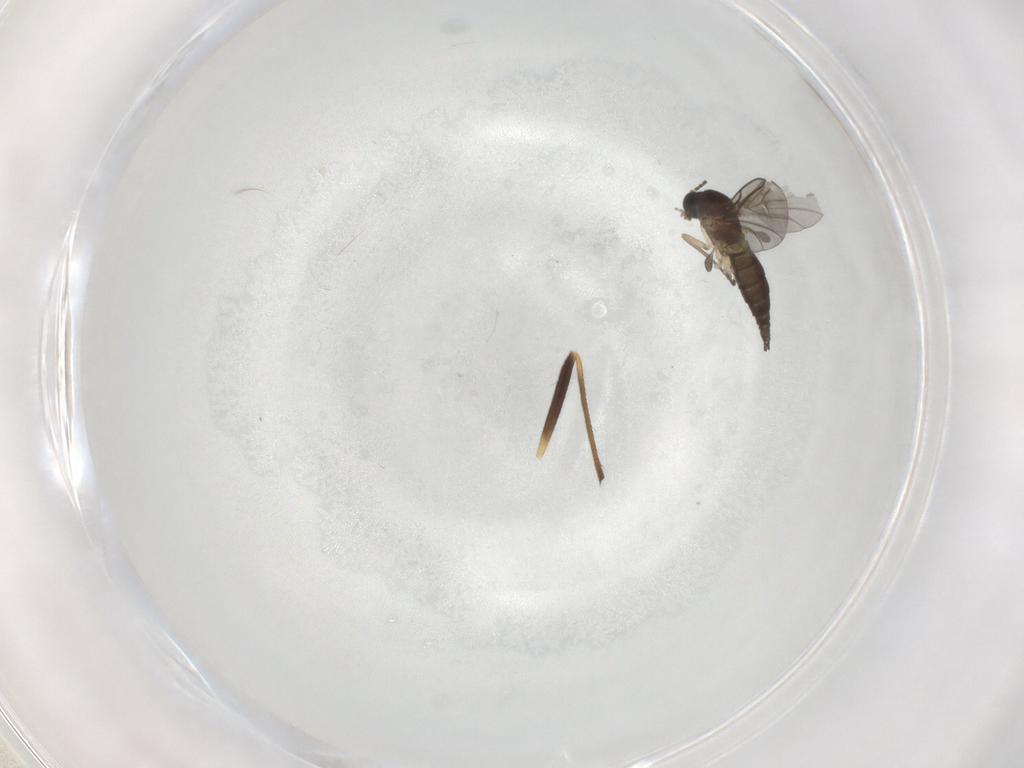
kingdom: Animalia
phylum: Arthropoda
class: Insecta
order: Diptera
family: Sciaridae
